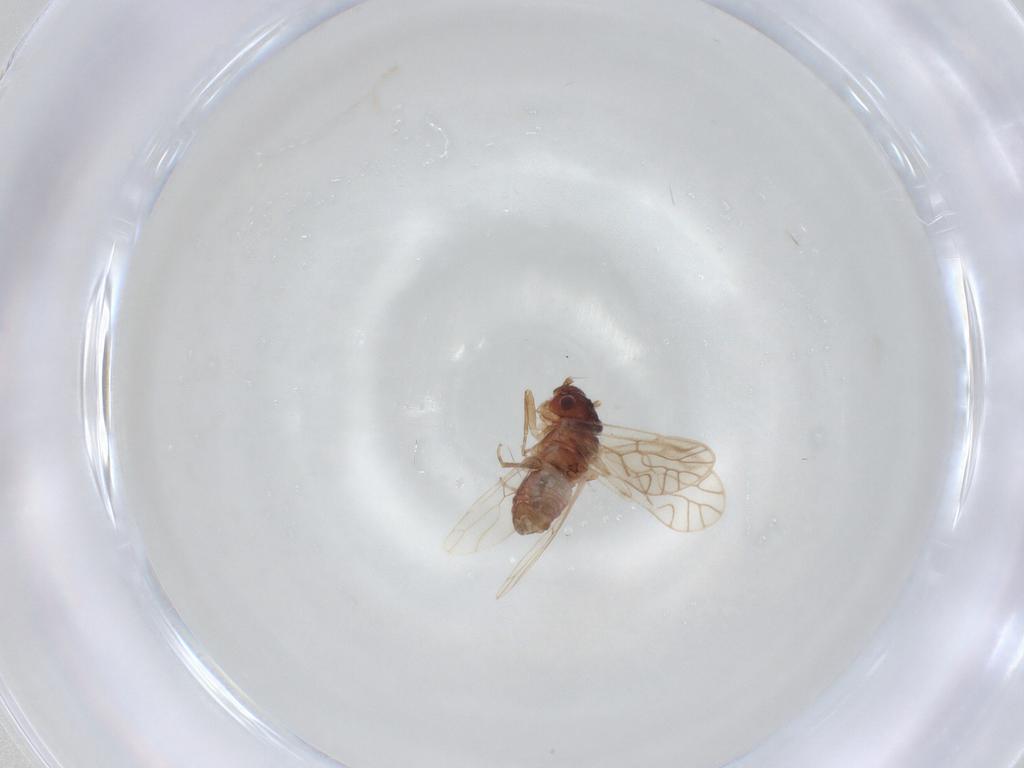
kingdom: Animalia
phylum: Arthropoda
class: Insecta
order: Psocodea
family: Amphipsocidae
